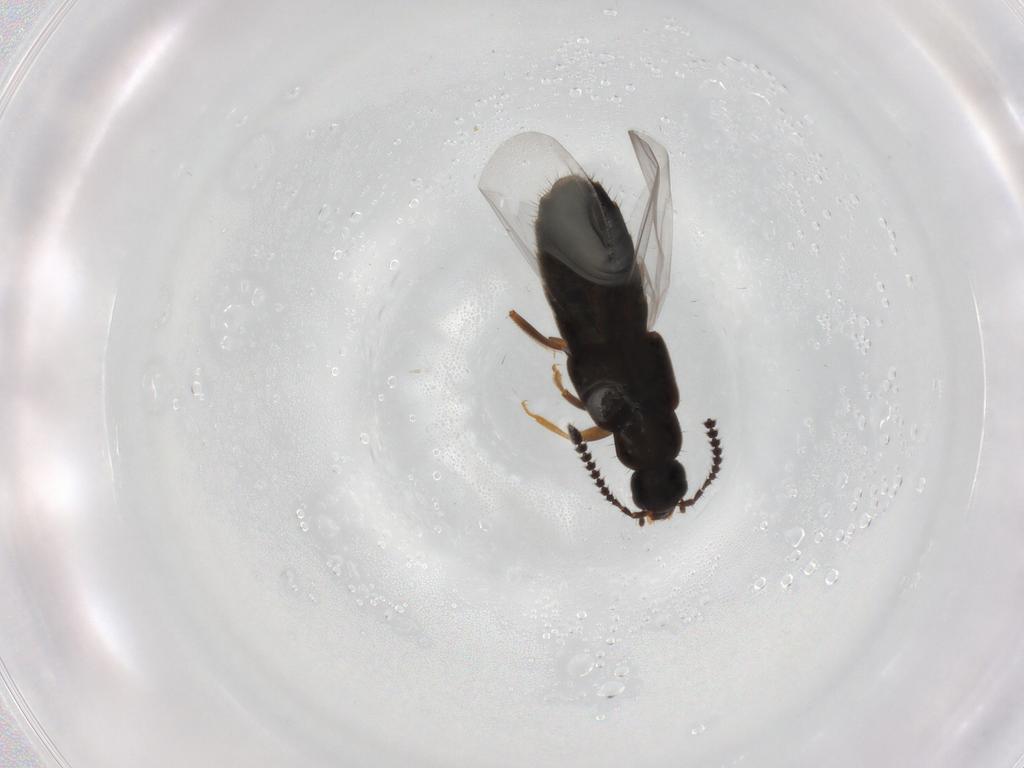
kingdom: Animalia
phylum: Arthropoda
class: Insecta
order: Coleoptera
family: Staphylinidae
